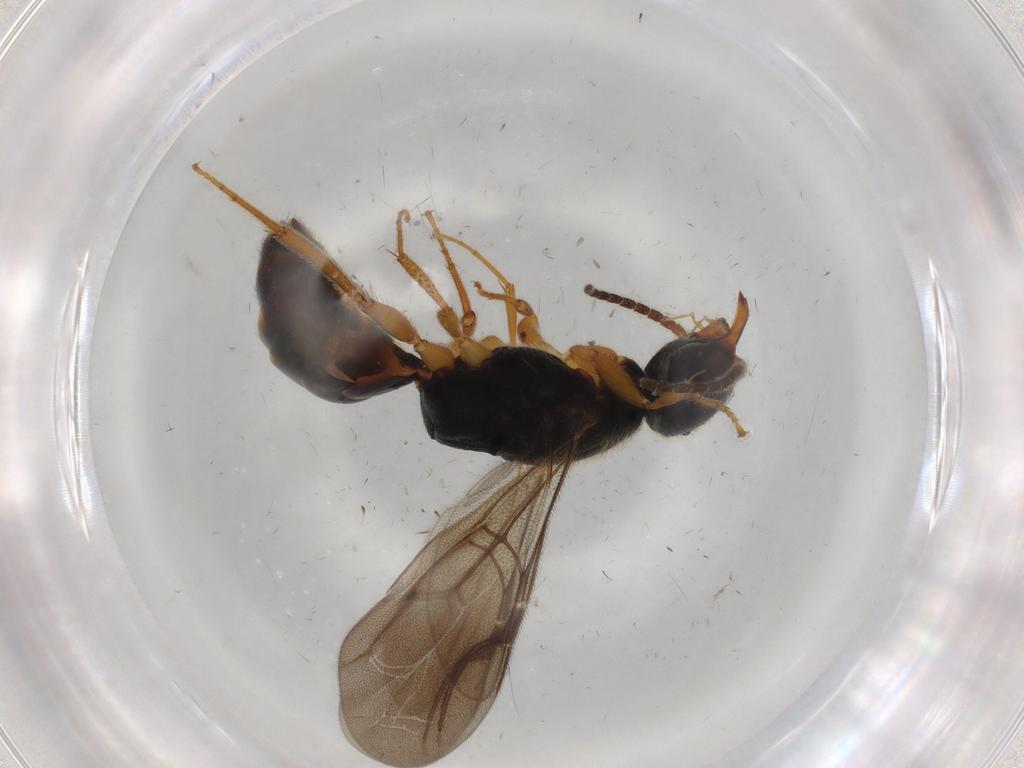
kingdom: Animalia
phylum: Arthropoda
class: Insecta
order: Hymenoptera
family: Bethylidae
